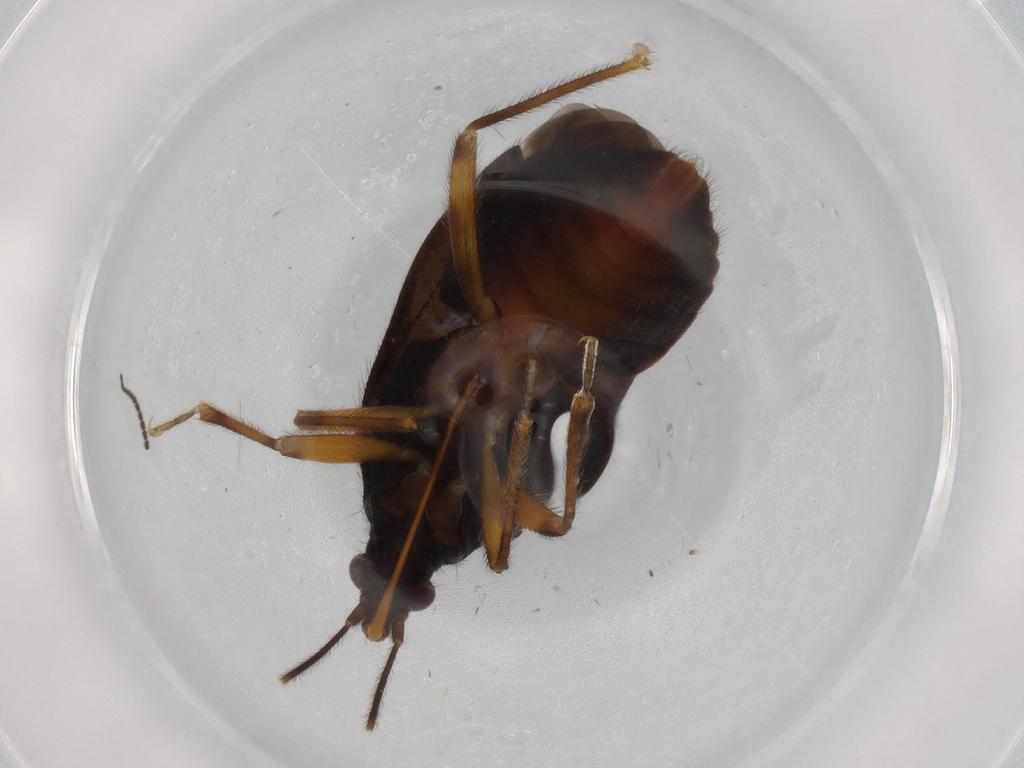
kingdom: Animalia
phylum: Arthropoda
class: Insecta
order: Hemiptera
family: Anthocoridae
